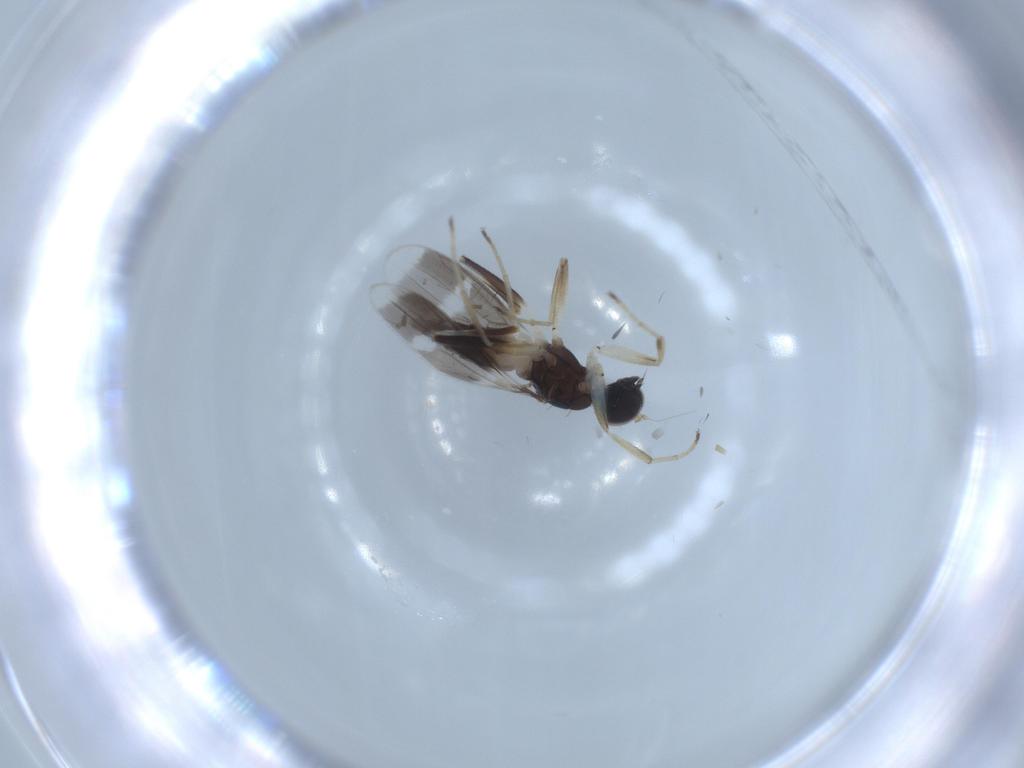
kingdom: Animalia
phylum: Arthropoda
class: Insecta
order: Diptera
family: Hybotidae
